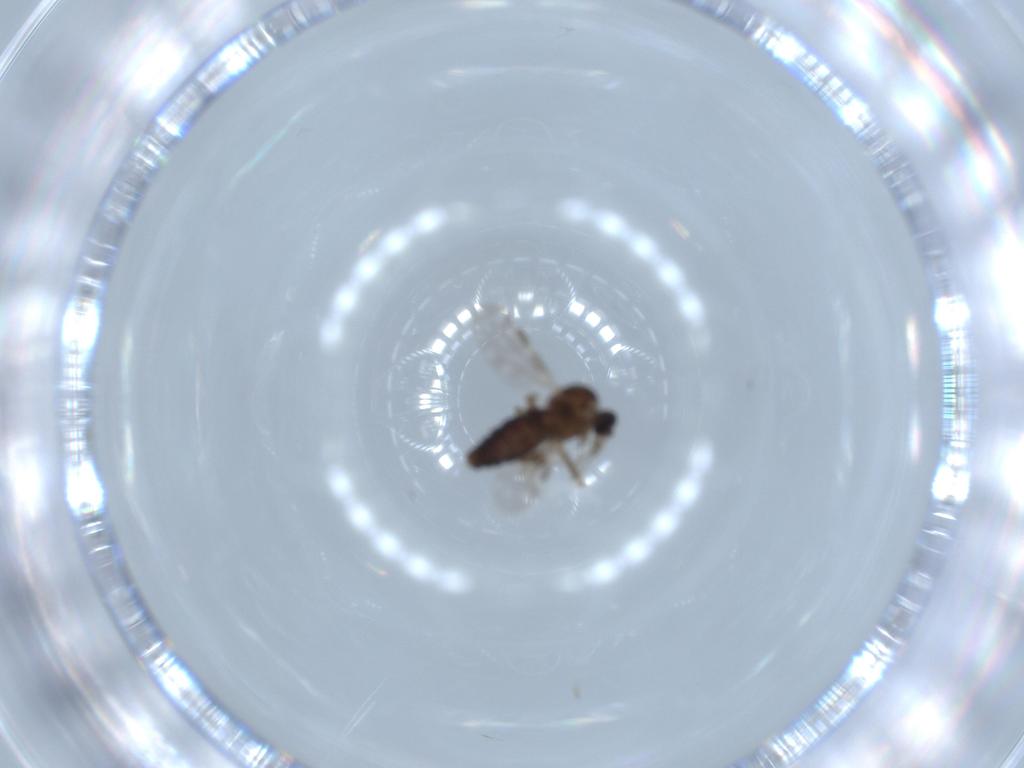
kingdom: Animalia
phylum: Arthropoda
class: Insecta
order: Diptera
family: Ceratopogonidae
